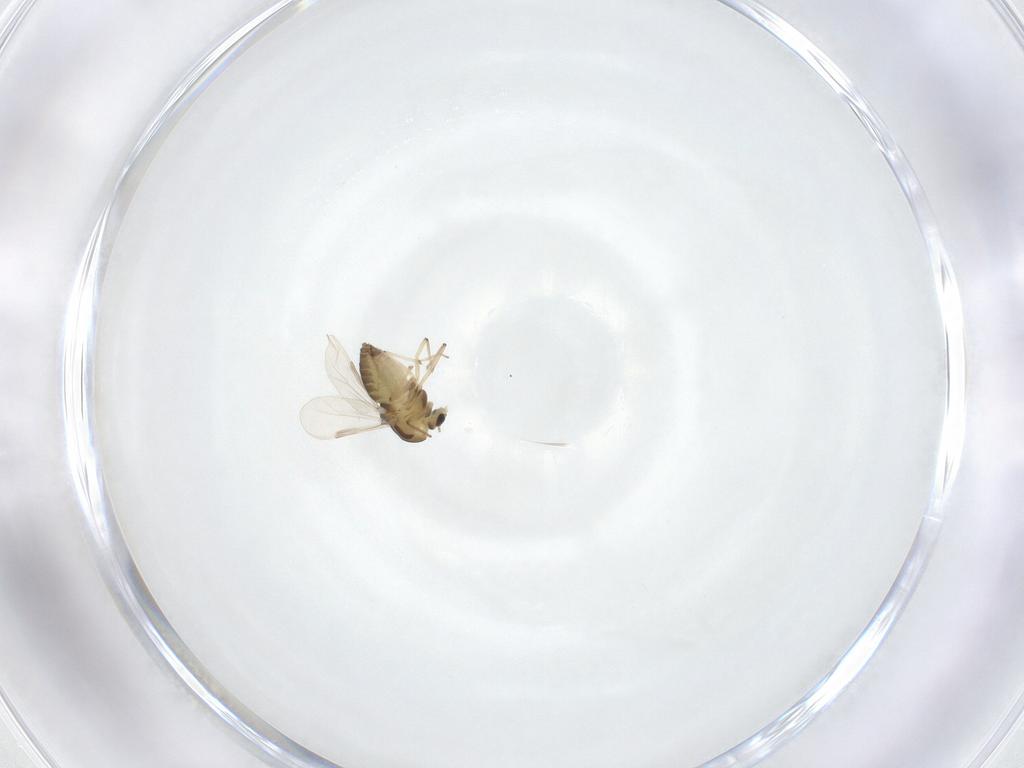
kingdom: Animalia
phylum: Arthropoda
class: Insecta
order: Diptera
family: Chironomidae
